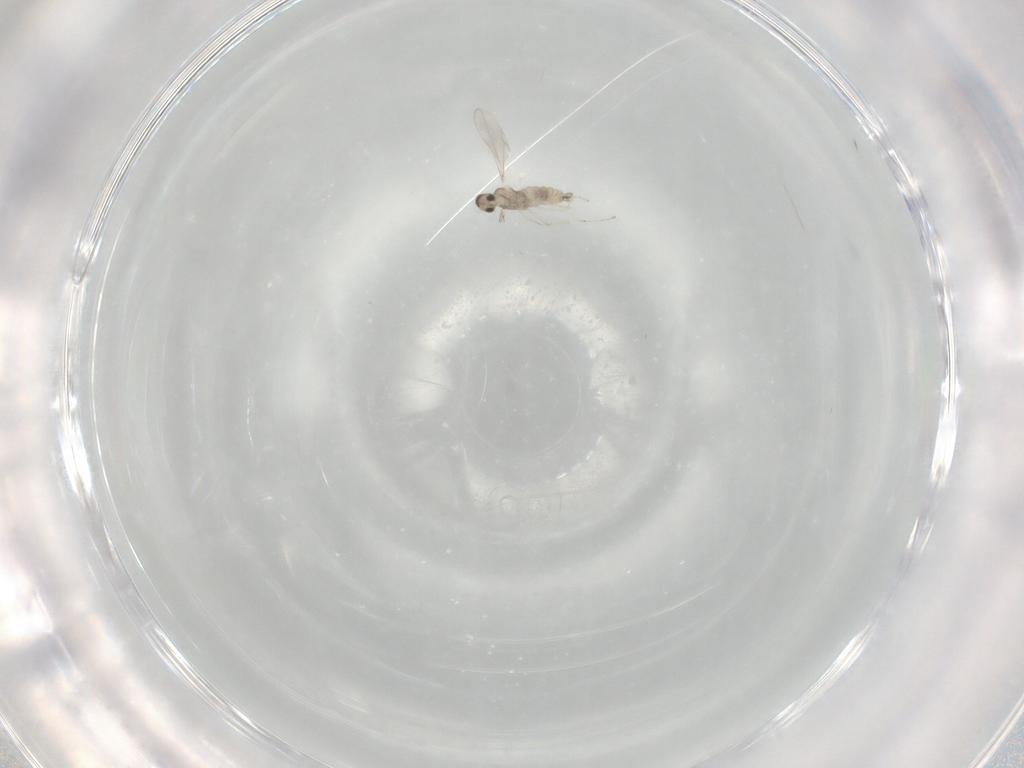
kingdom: Animalia
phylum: Arthropoda
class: Insecta
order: Diptera
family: Cecidomyiidae
